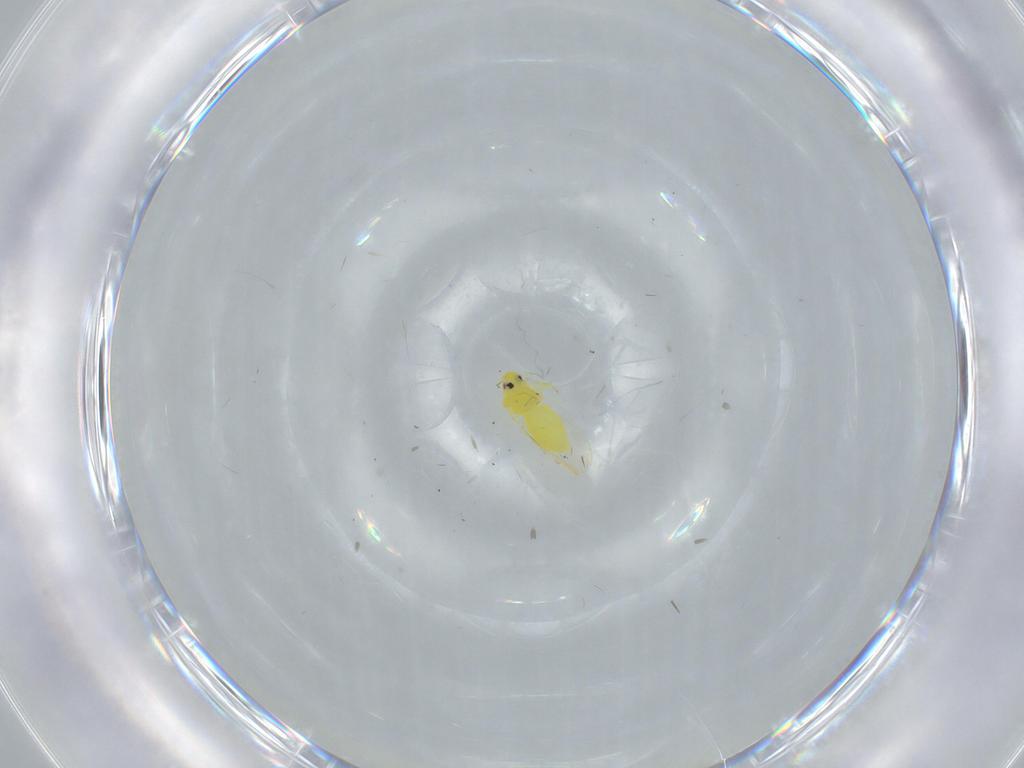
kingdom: Animalia
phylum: Arthropoda
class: Insecta
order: Hemiptera
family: Aleyrodidae
